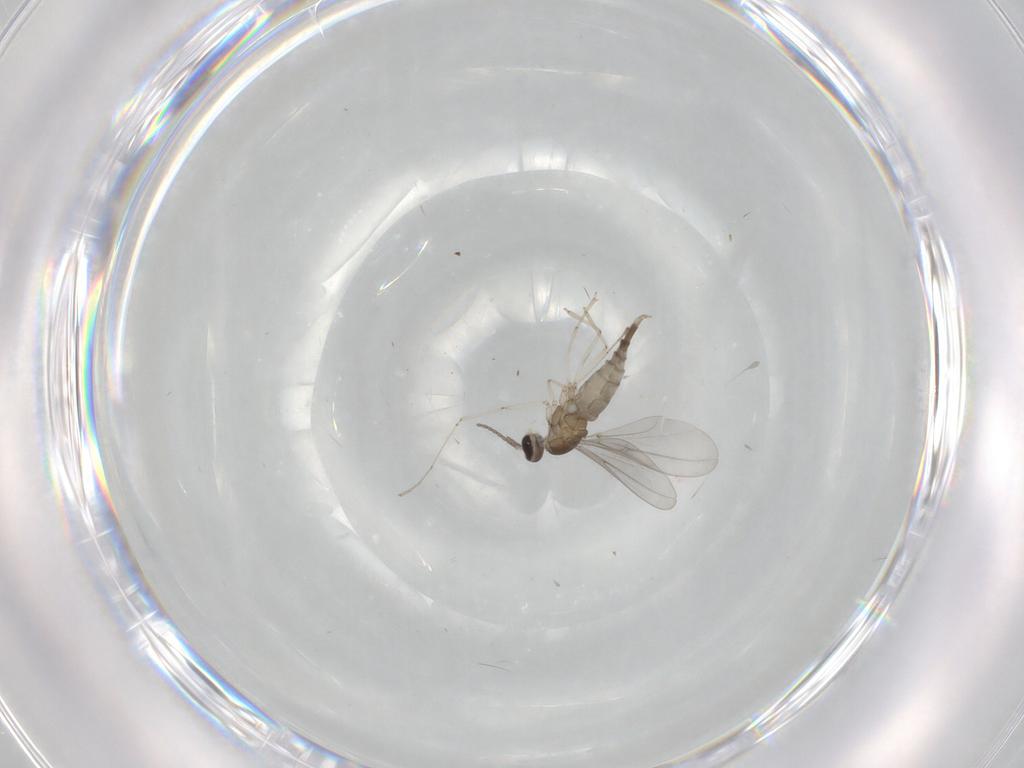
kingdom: Animalia
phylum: Arthropoda
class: Insecta
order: Diptera
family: Cecidomyiidae
